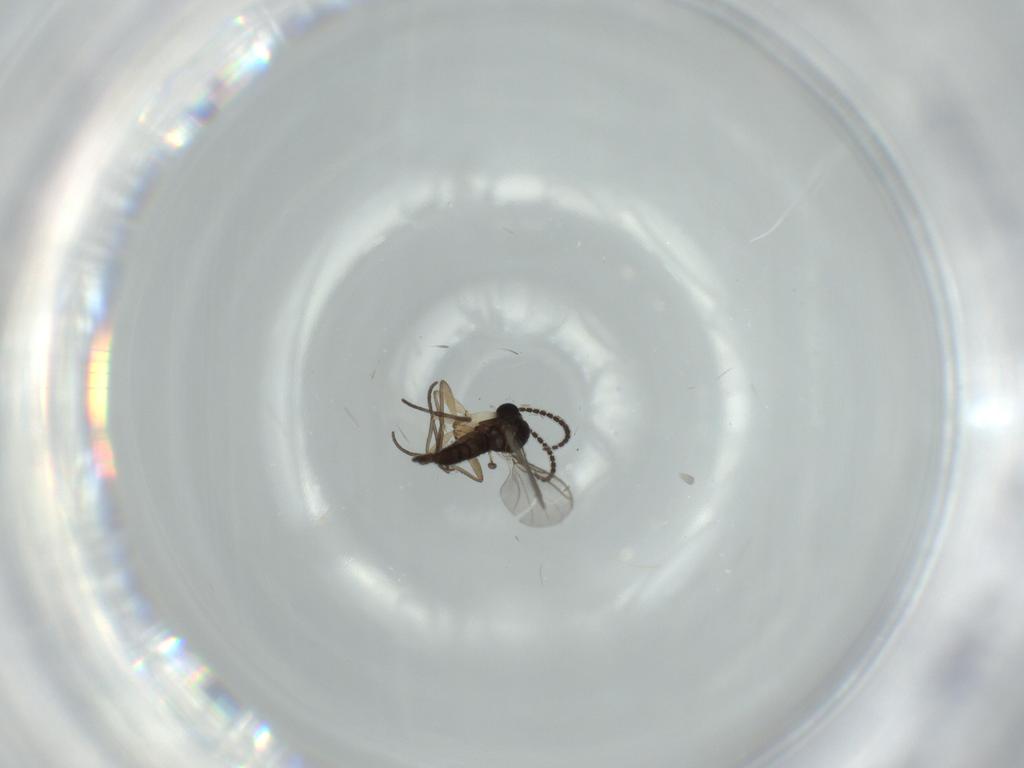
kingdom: Animalia
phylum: Arthropoda
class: Insecta
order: Diptera
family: Sciaridae
